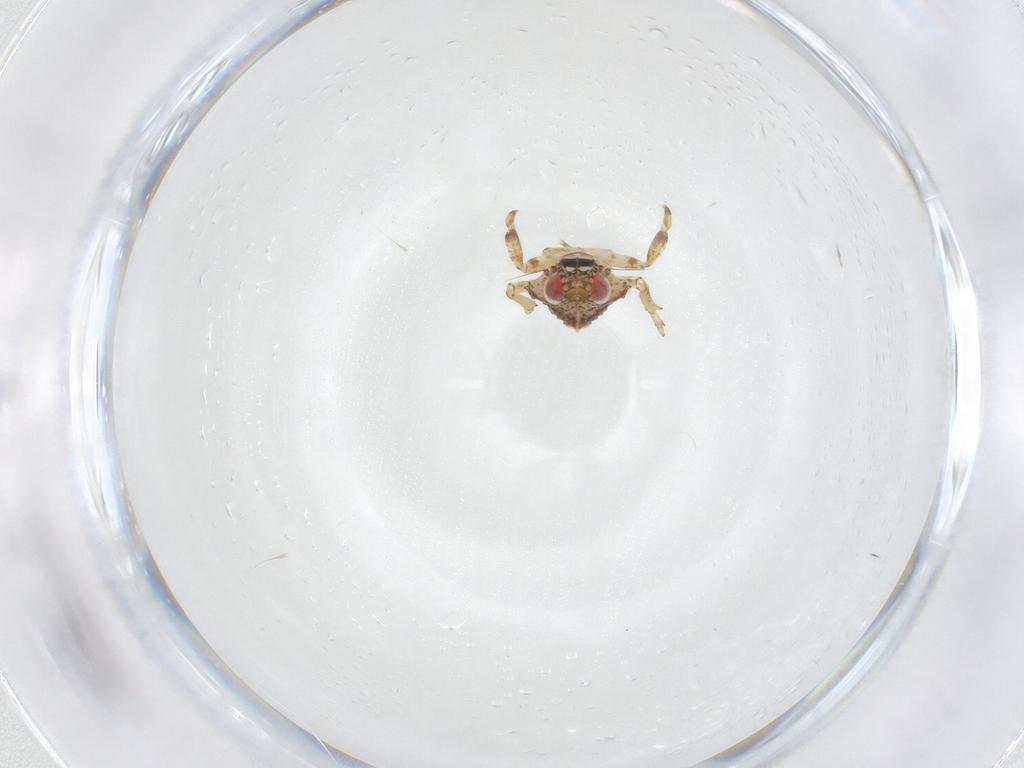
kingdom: Animalia
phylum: Arthropoda
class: Insecta
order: Hemiptera
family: Issidae
